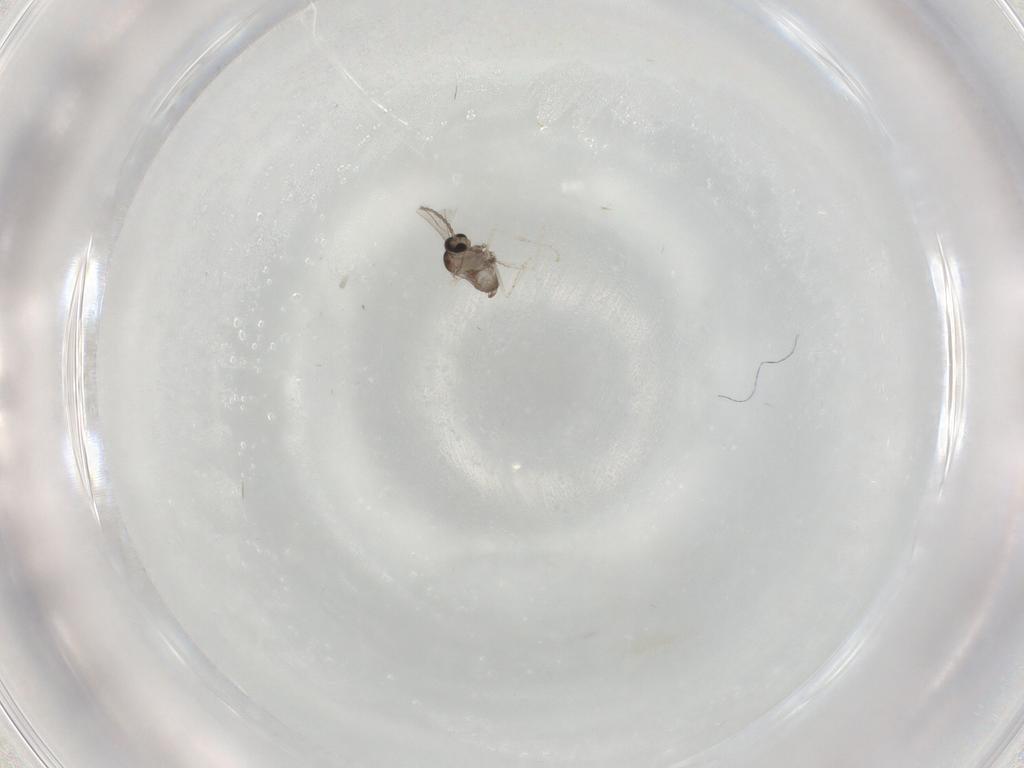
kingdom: Animalia
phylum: Arthropoda
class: Insecta
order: Diptera
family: Cecidomyiidae
